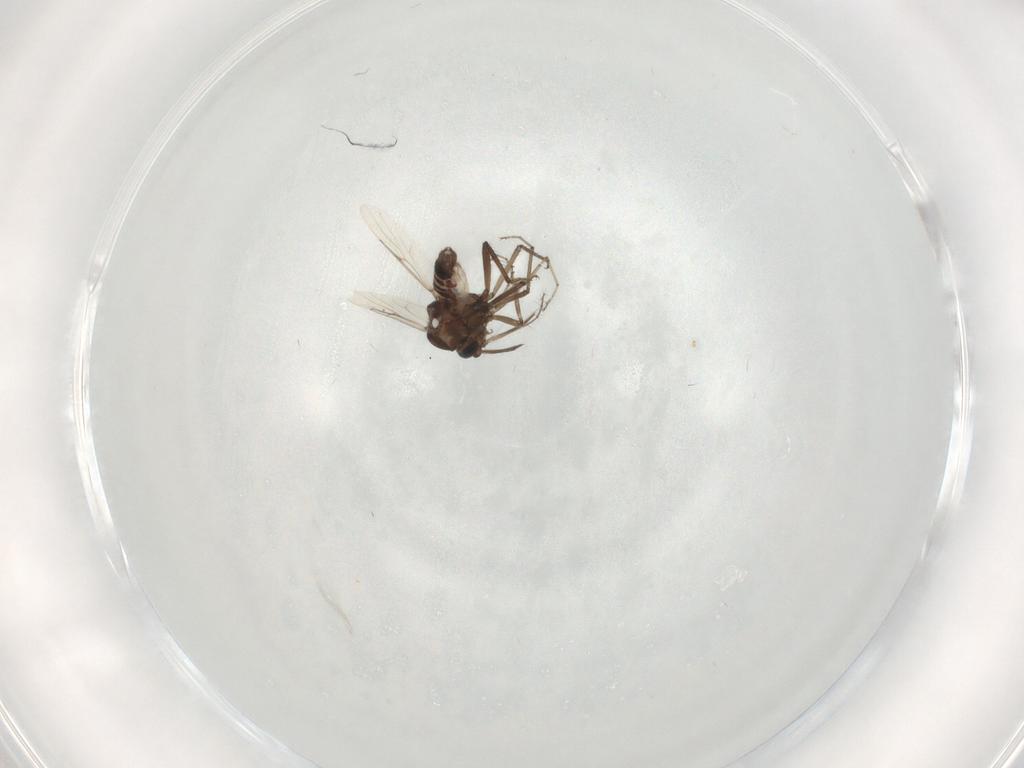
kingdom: Animalia
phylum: Arthropoda
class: Insecta
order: Diptera
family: Ceratopogonidae
